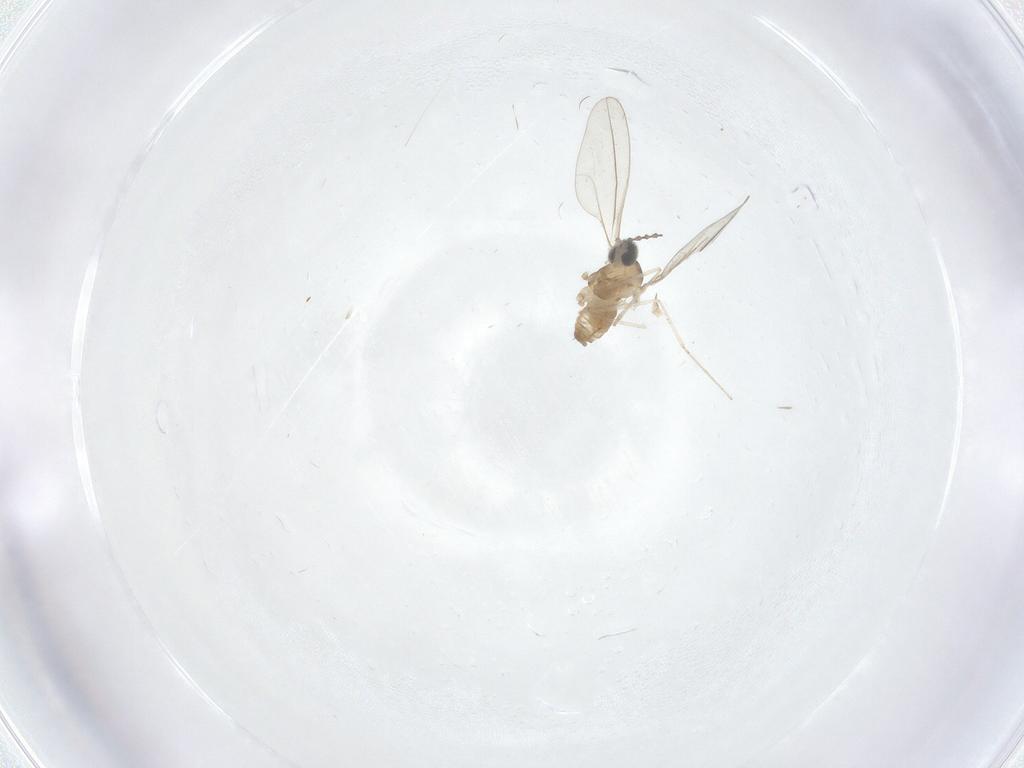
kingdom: Animalia
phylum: Arthropoda
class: Insecta
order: Diptera
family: Cecidomyiidae
